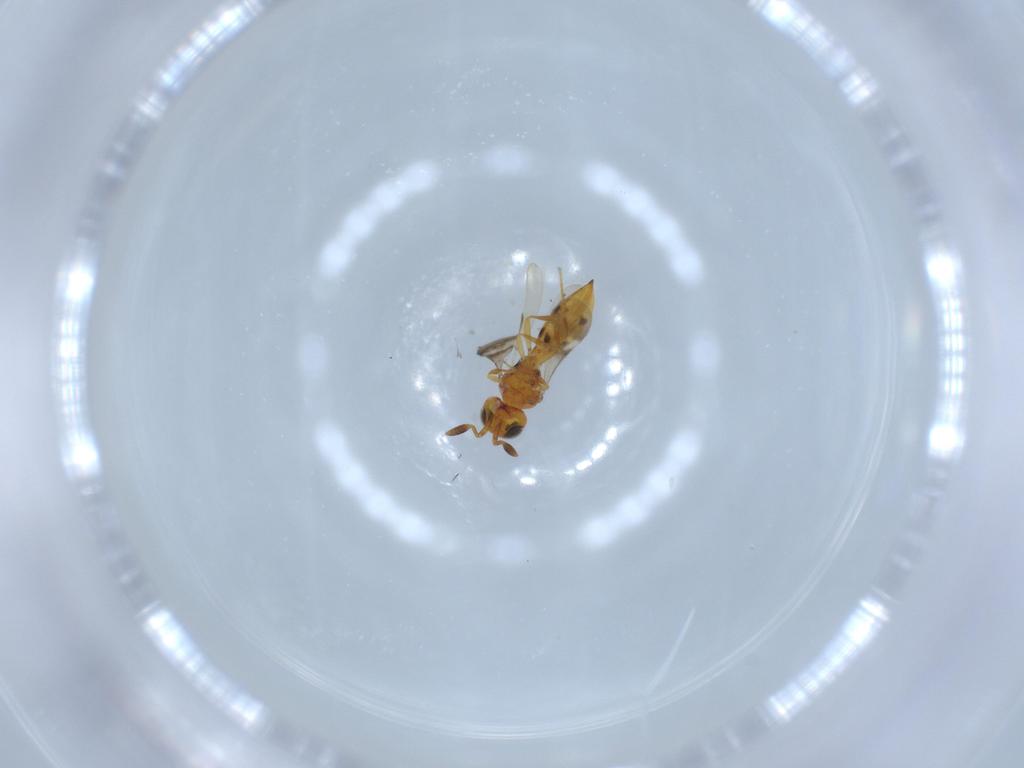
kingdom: Animalia
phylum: Arthropoda
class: Insecta
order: Hymenoptera
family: Scelionidae
